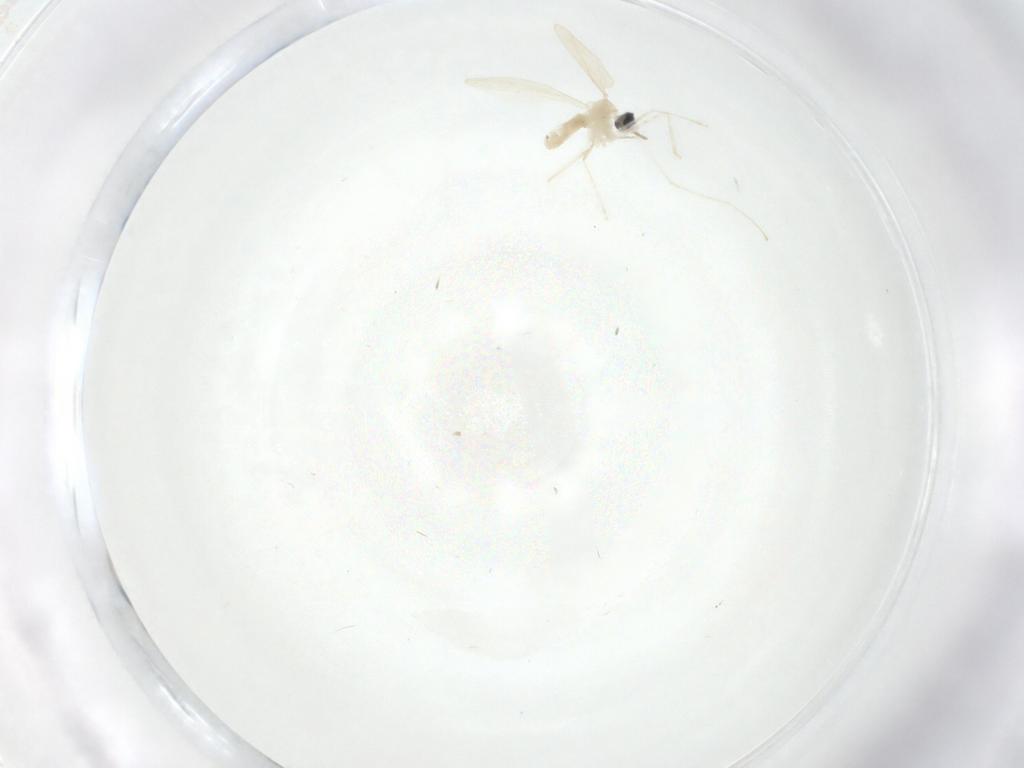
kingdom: Animalia
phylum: Arthropoda
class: Insecta
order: Diptera
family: Cecidomyiidae
